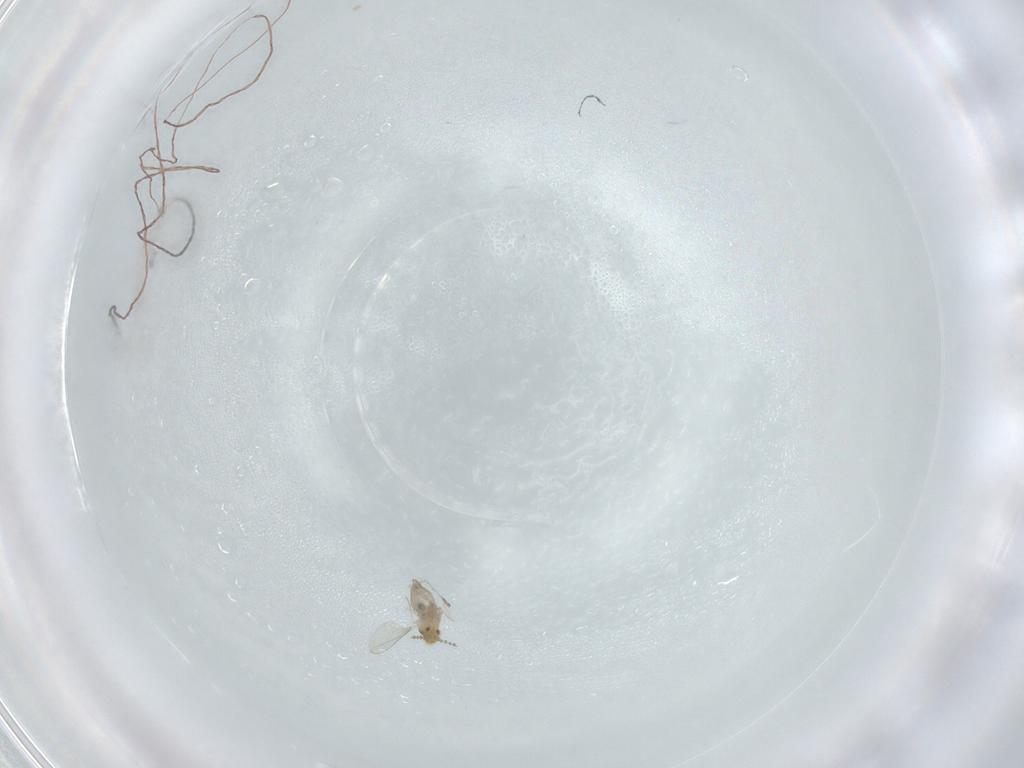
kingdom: Animalia
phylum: Arthropoda
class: Insecta
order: Diptera
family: Cecidomyiidae
